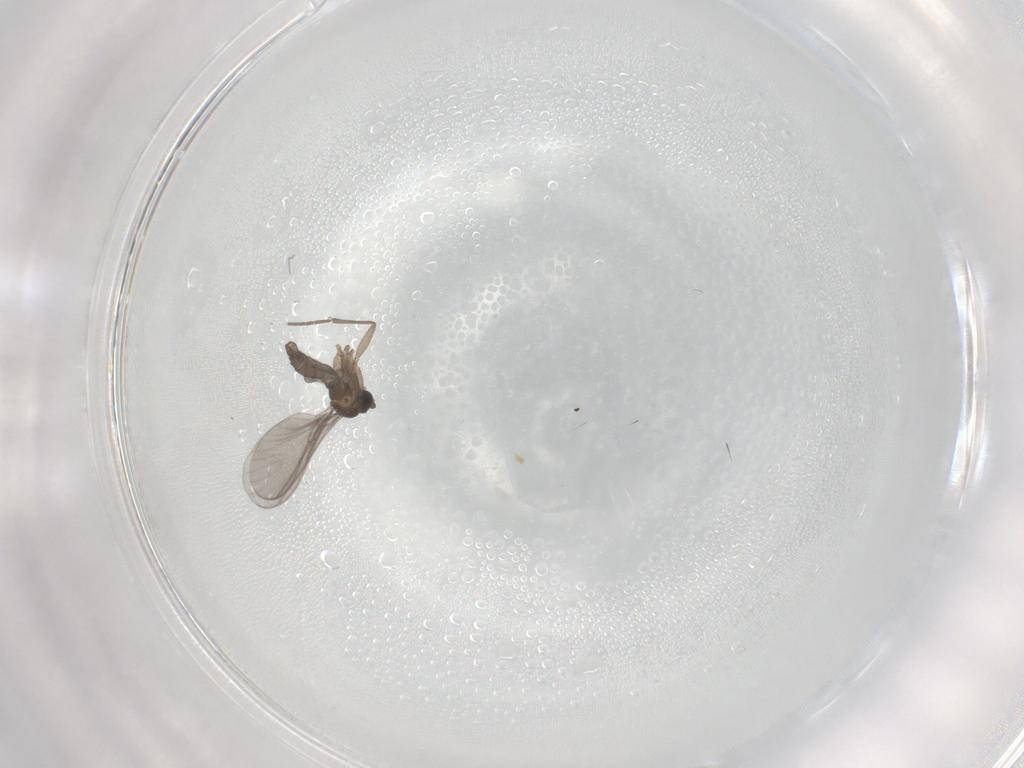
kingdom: Animalia
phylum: Arthropoda
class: Insecta
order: Diptera
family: Sciaridae
